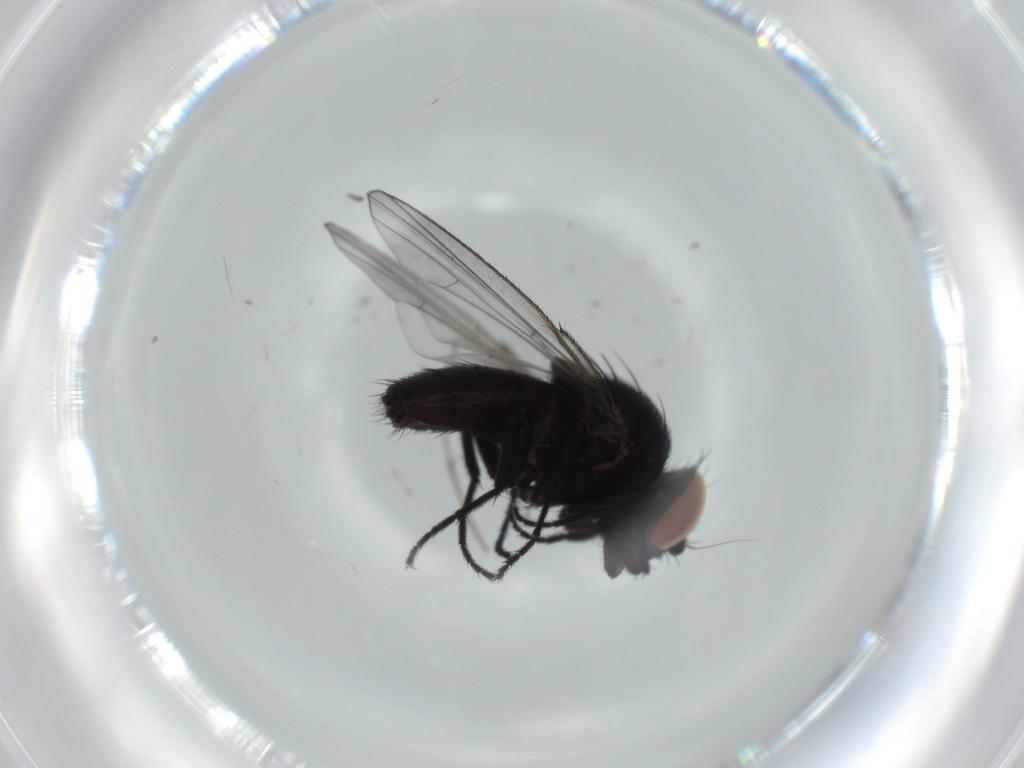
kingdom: Animalia
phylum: Arthropoda
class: Insecta
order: Diptera
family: Milichiidae
